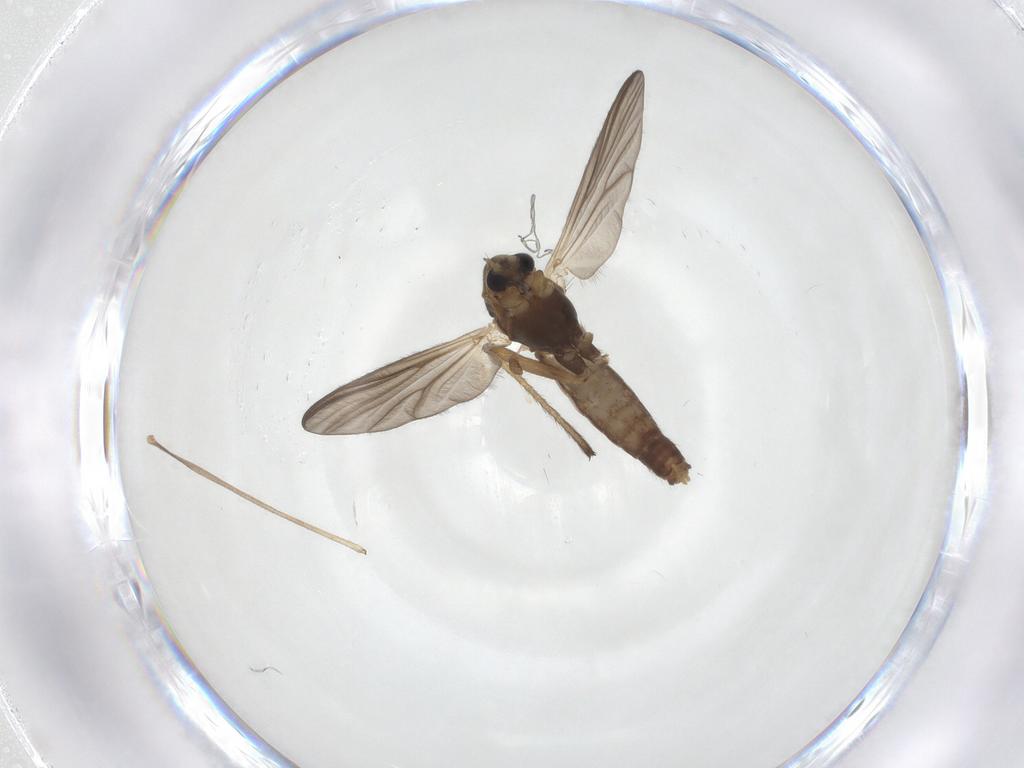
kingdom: Animalia
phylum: Arthropoda
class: Insecta
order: Diptera
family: Chironomidae
